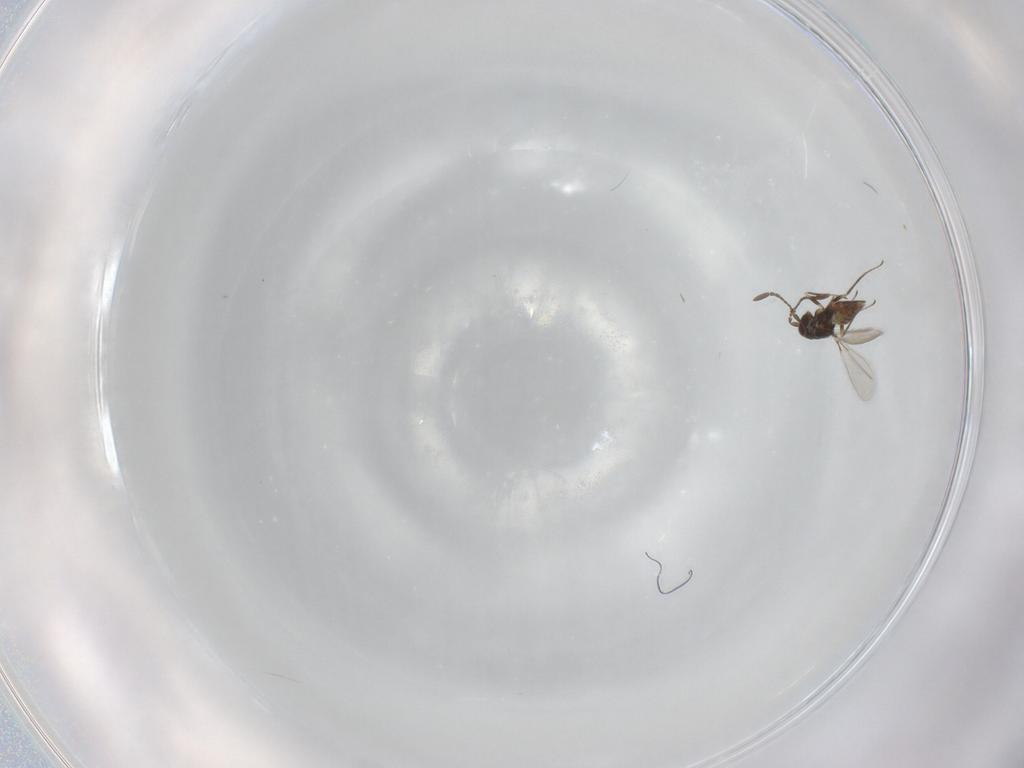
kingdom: Animalia
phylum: Arthropoda
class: Insecta
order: Hymenoptera
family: Mymaridae
